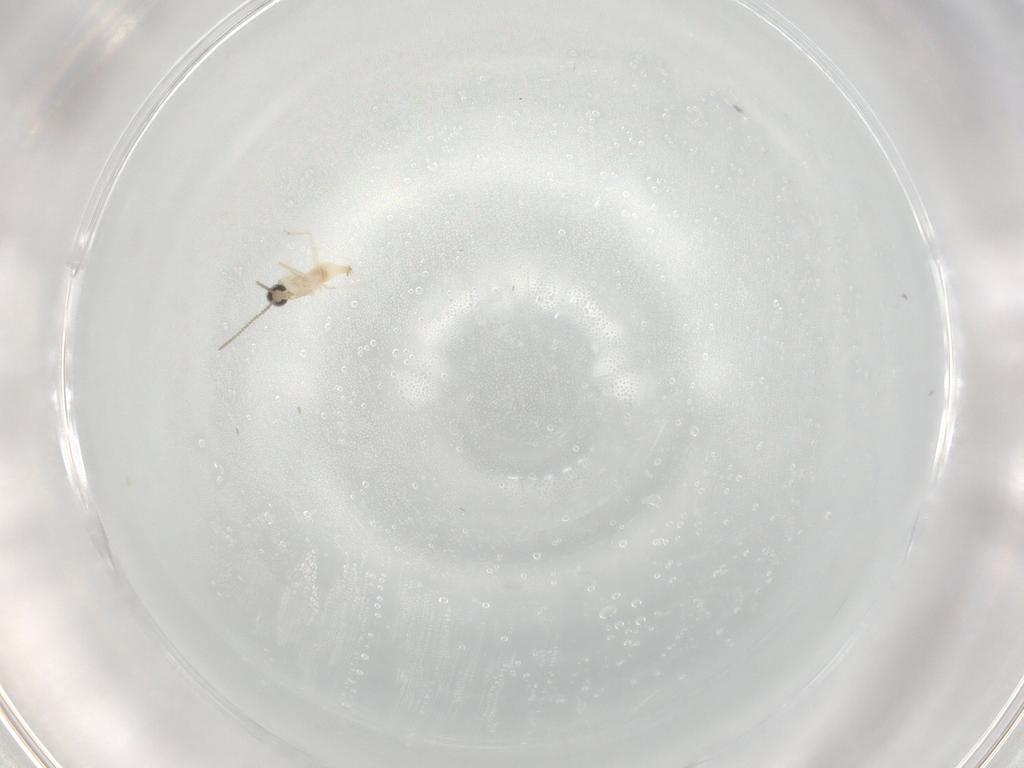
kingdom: Animalia
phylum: Arthropoda
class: Insecta
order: Diptera
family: Cecidomyiidae
